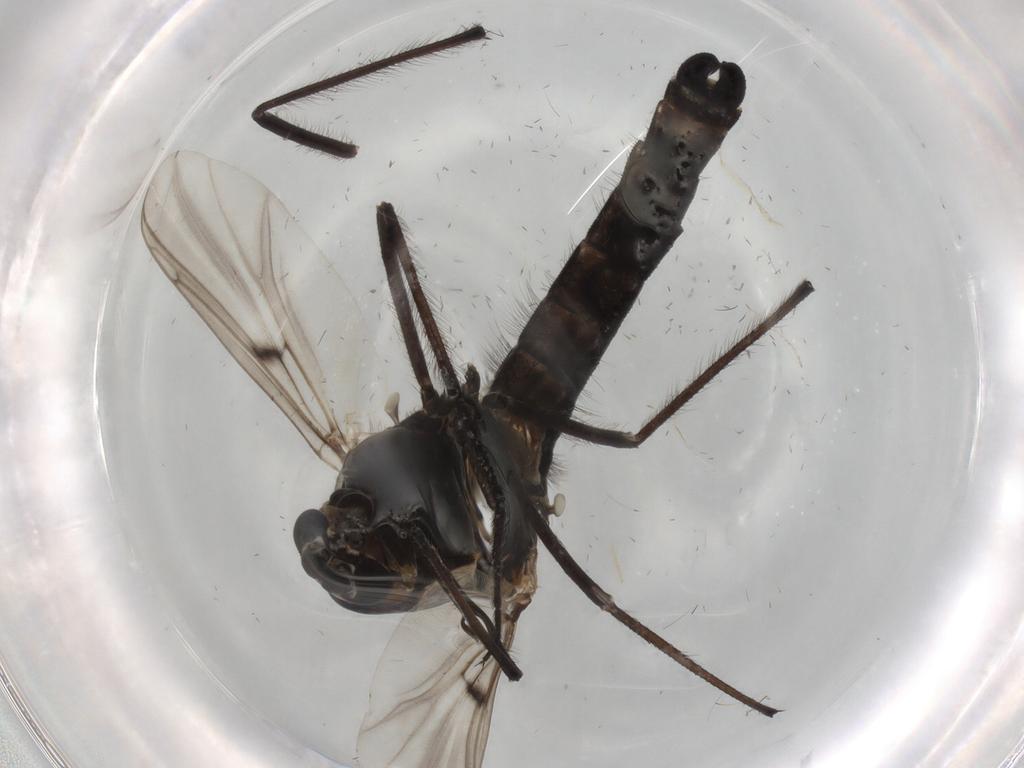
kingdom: Animalia
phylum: Arthropoda
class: Insecta
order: Diptera
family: Chironomidae
